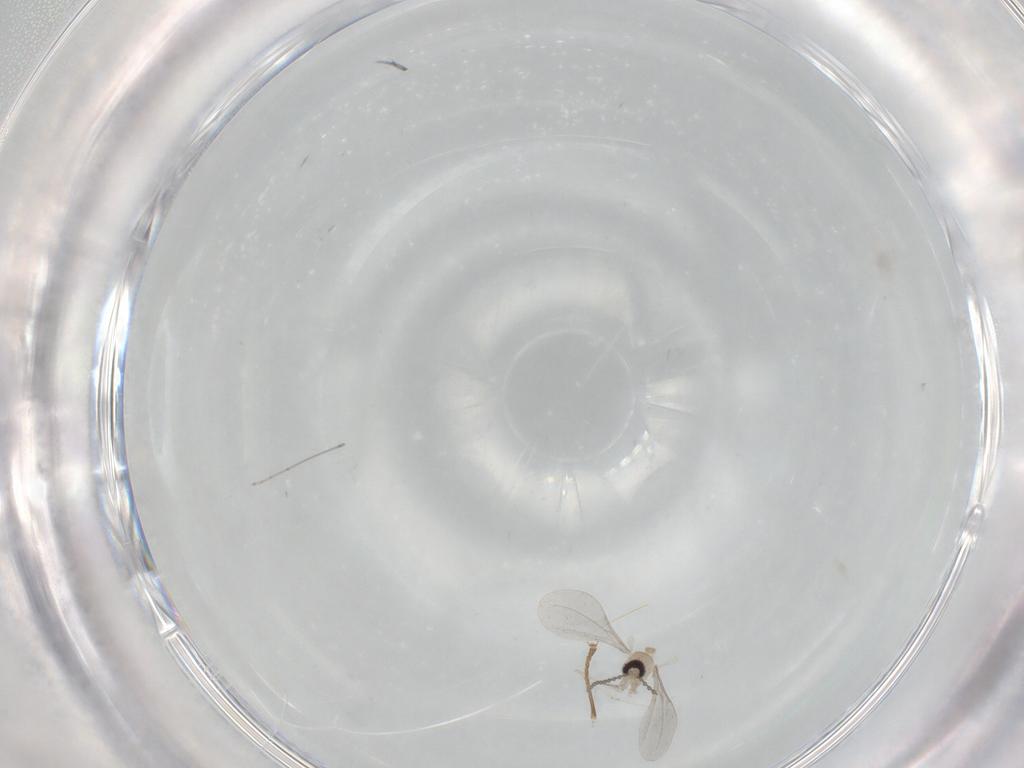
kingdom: Animalia
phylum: Arthropoda
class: Insecta
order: Diptera
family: Cecidomyiidae
